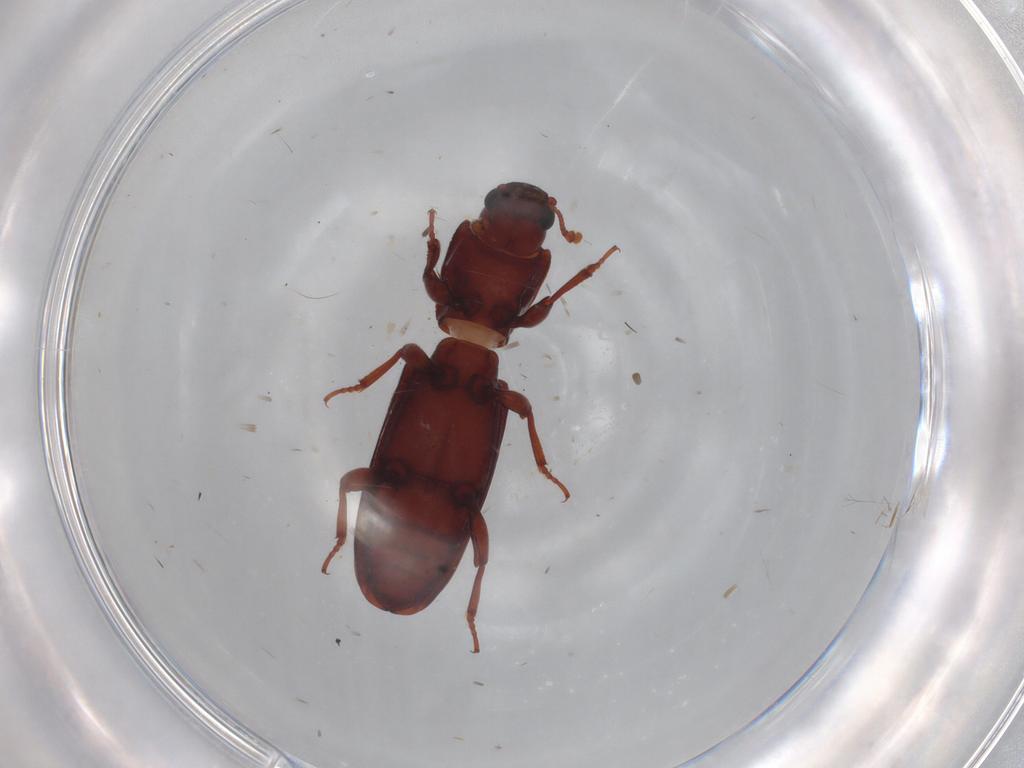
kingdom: Animalia
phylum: Arthropoda
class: Insecta
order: Coleoptera
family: Bothrideridae
